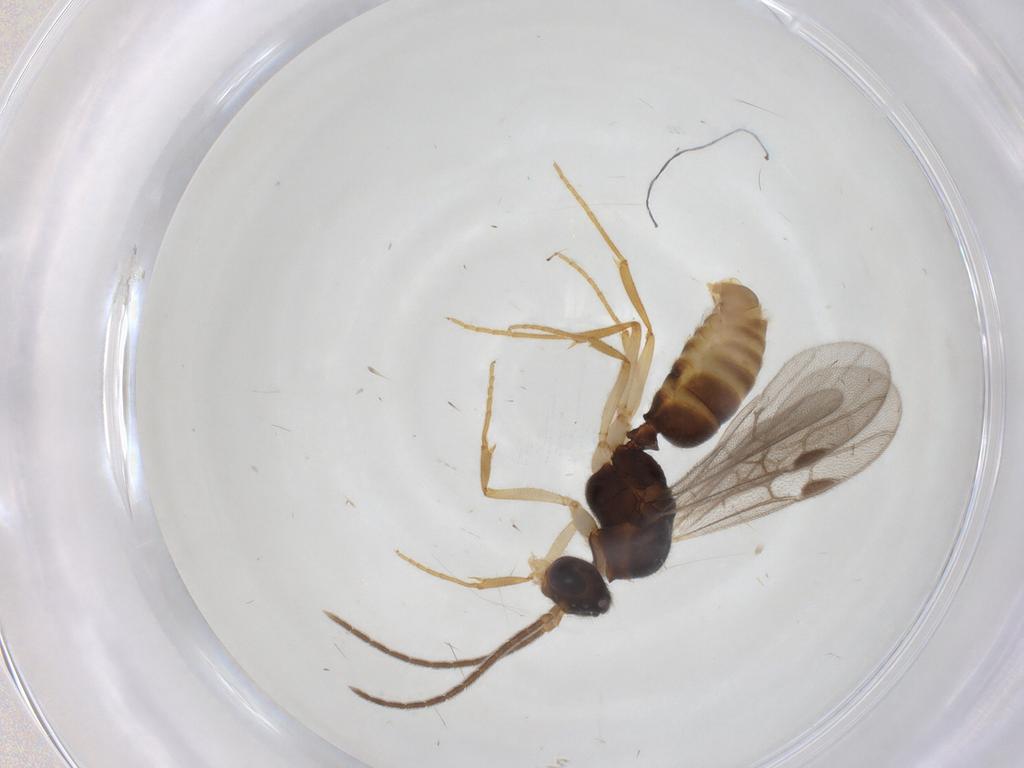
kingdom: Animalia
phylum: Arthropoda
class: Insecta
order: Hymenoptera
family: Formicidae
